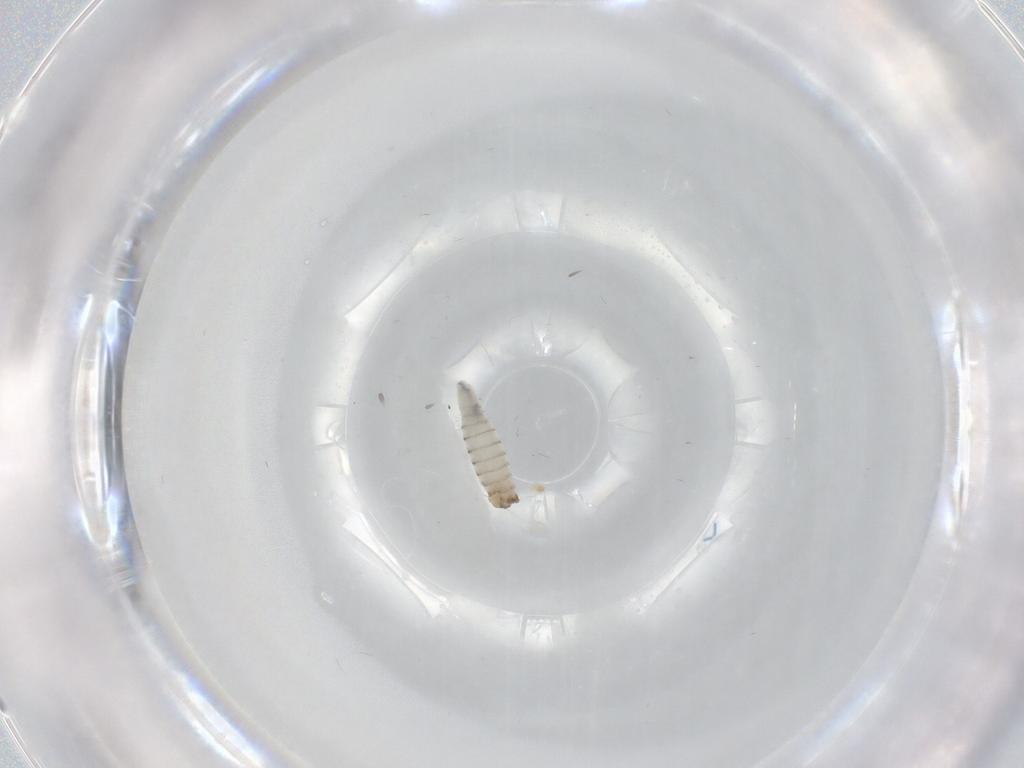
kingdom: Animalia
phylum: Arthropoda
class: Insecta
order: Diptera
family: Sarcophagidae
